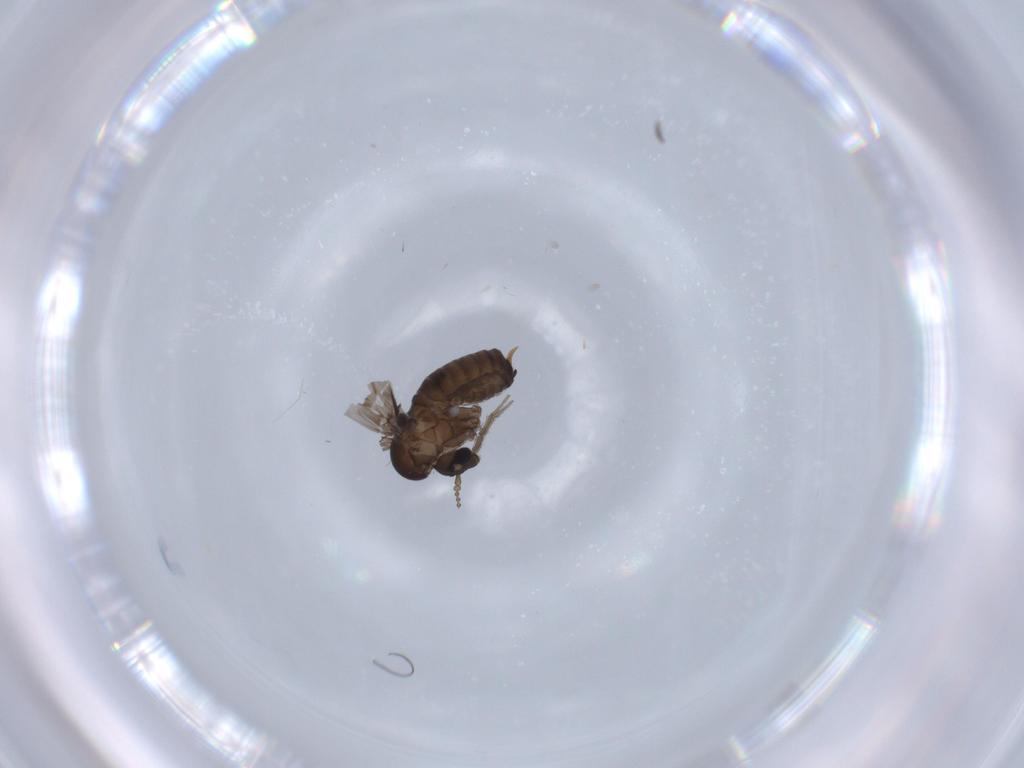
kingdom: Animalia
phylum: Arthropoda
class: Insecta
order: Diptera
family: Psychodidae
